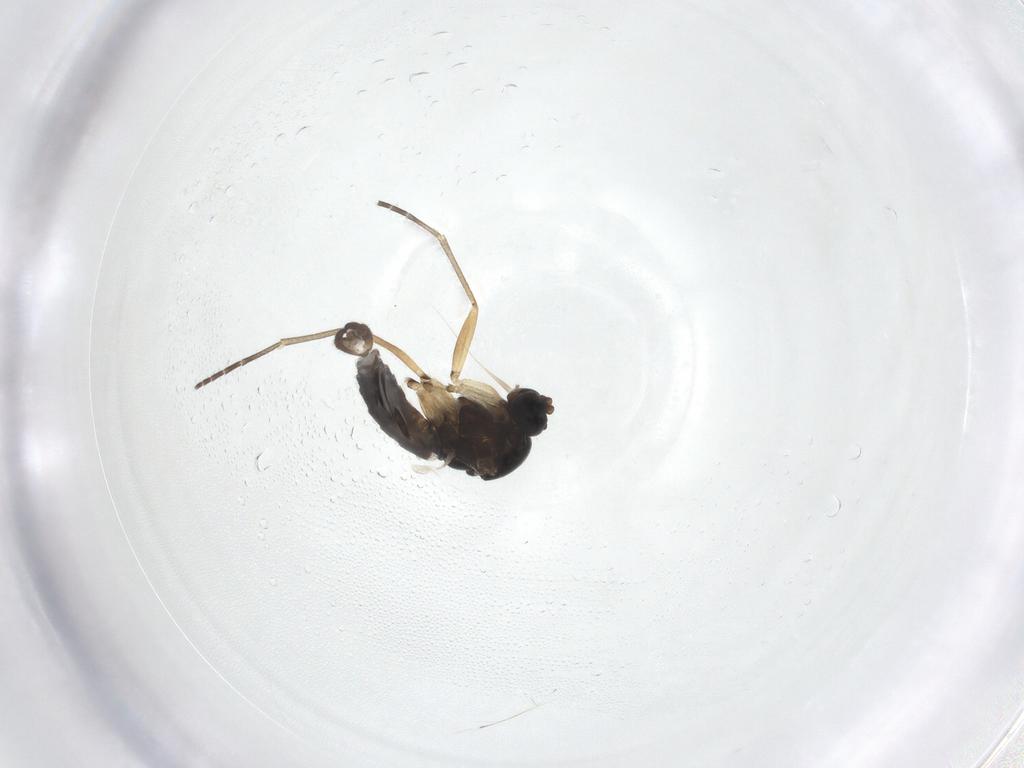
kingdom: Animalia
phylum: Arthropoda
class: Insecta
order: Diptera
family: Sciaridae
